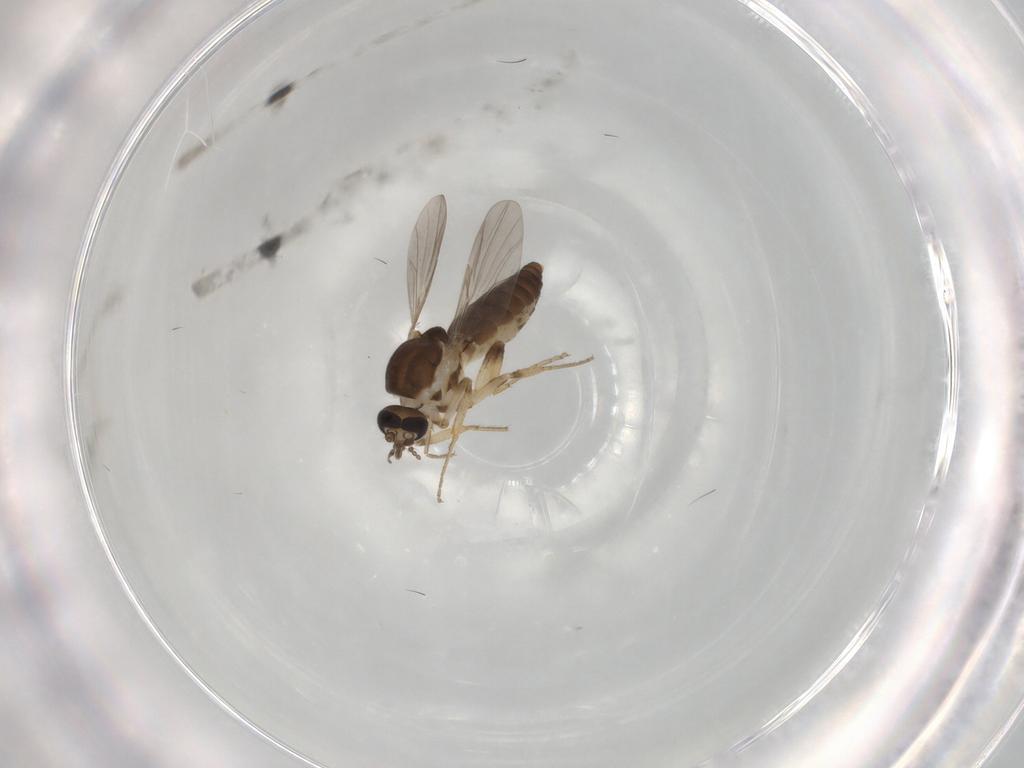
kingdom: Animalia
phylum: Arthropoda
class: Insecta
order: Diptera
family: Ceratopogonidae
